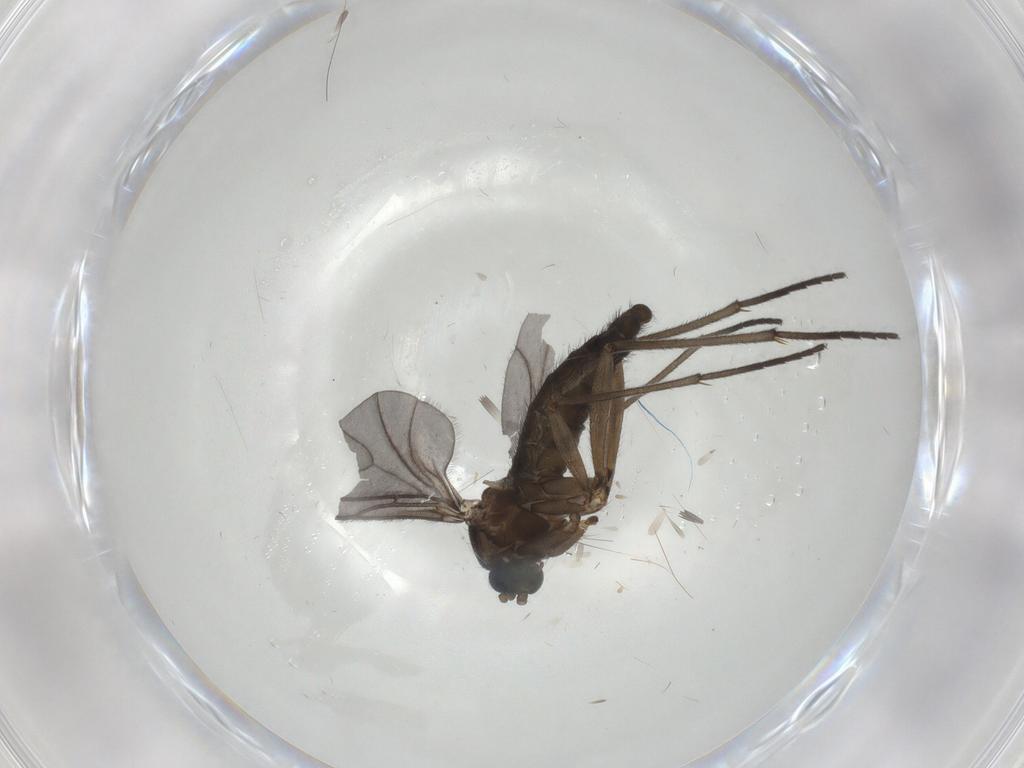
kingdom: Animalia
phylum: Arthropoda
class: Insecta
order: Diptera
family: Sciaridae
